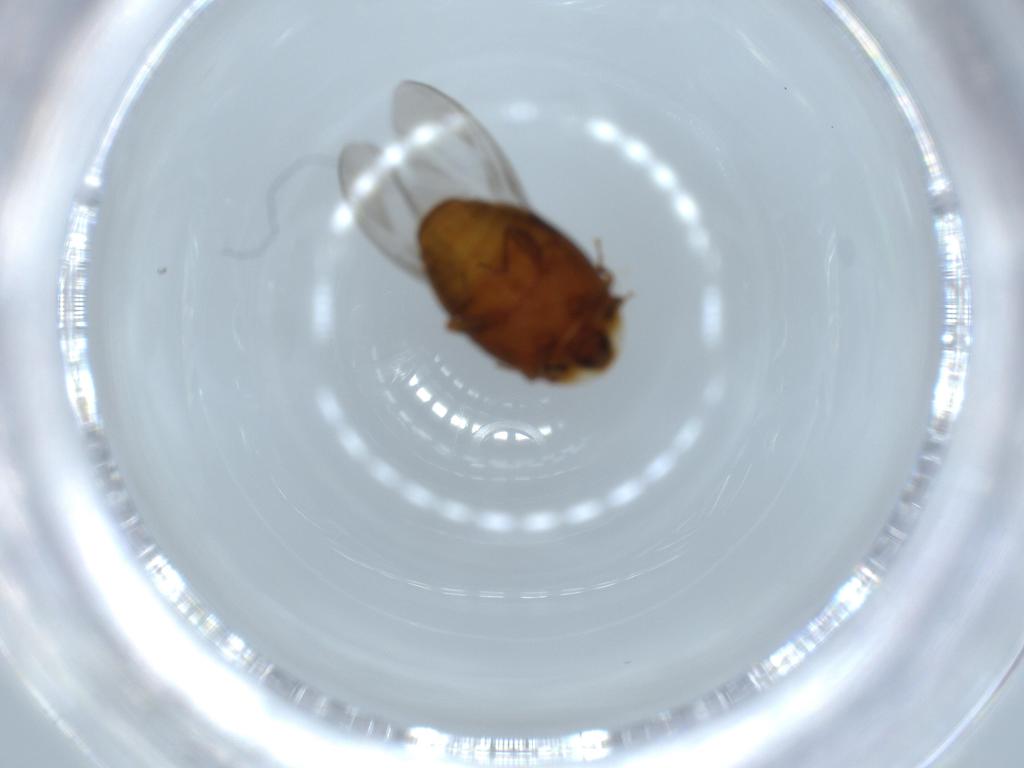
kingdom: Animalia
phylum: Arthropoda
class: Insecta
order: Coleoptera
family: Corylophidae
